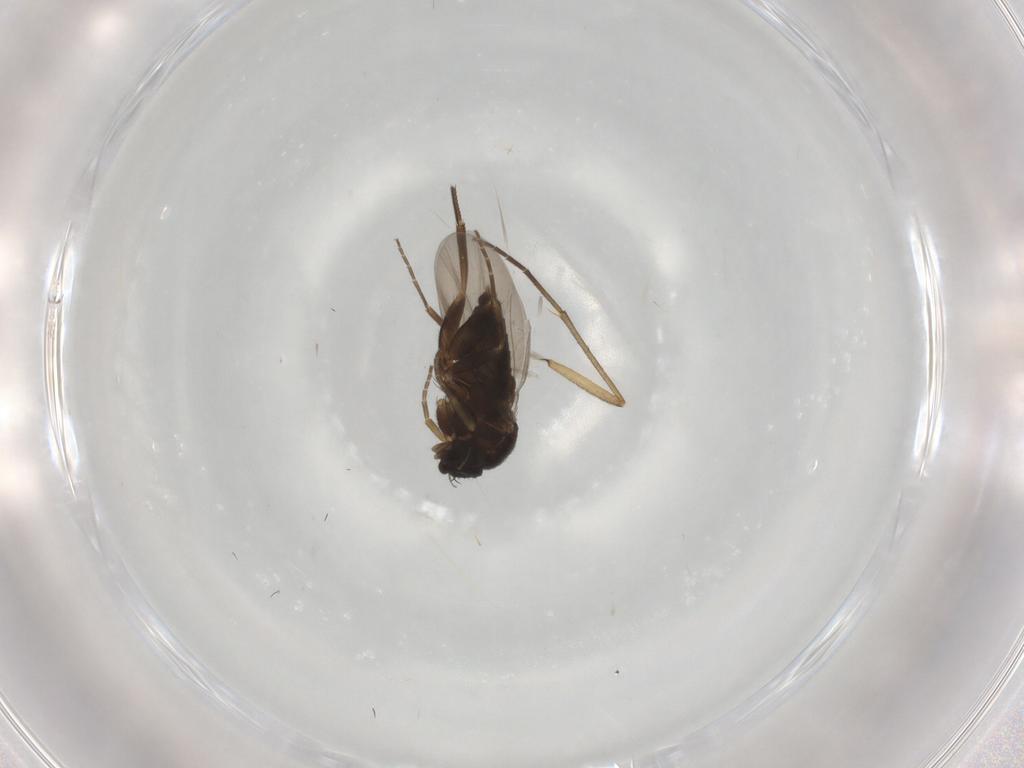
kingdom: Animalia
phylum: Arthropoda
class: Insecta
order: Diptera
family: Phoridae
